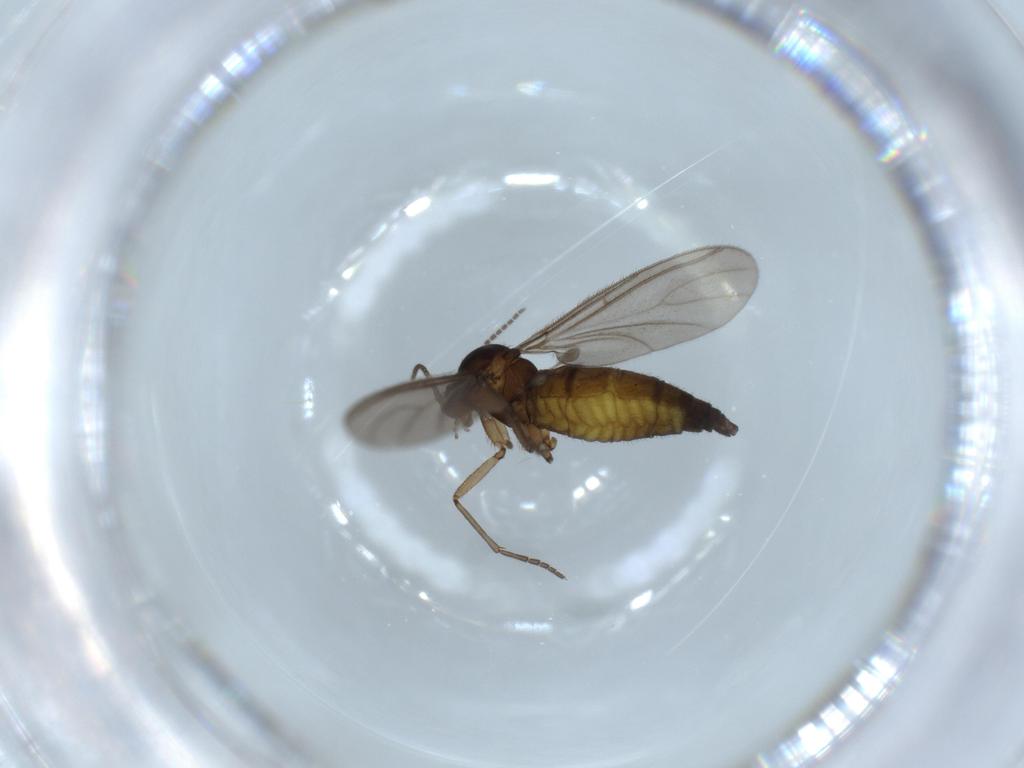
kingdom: Animalia
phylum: Arthropoda
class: Insecta
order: Diptera
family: Sciaridae
